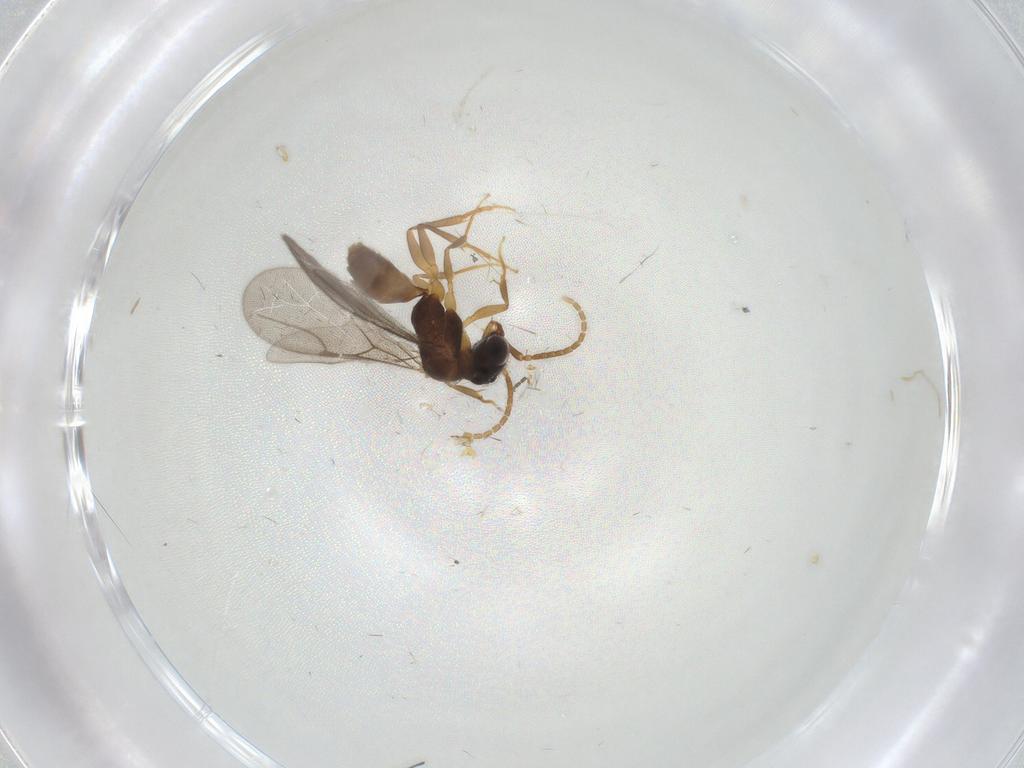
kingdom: Animalia
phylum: Arthropoda
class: Insecta
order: Hymenoptera
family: Bethylidae
